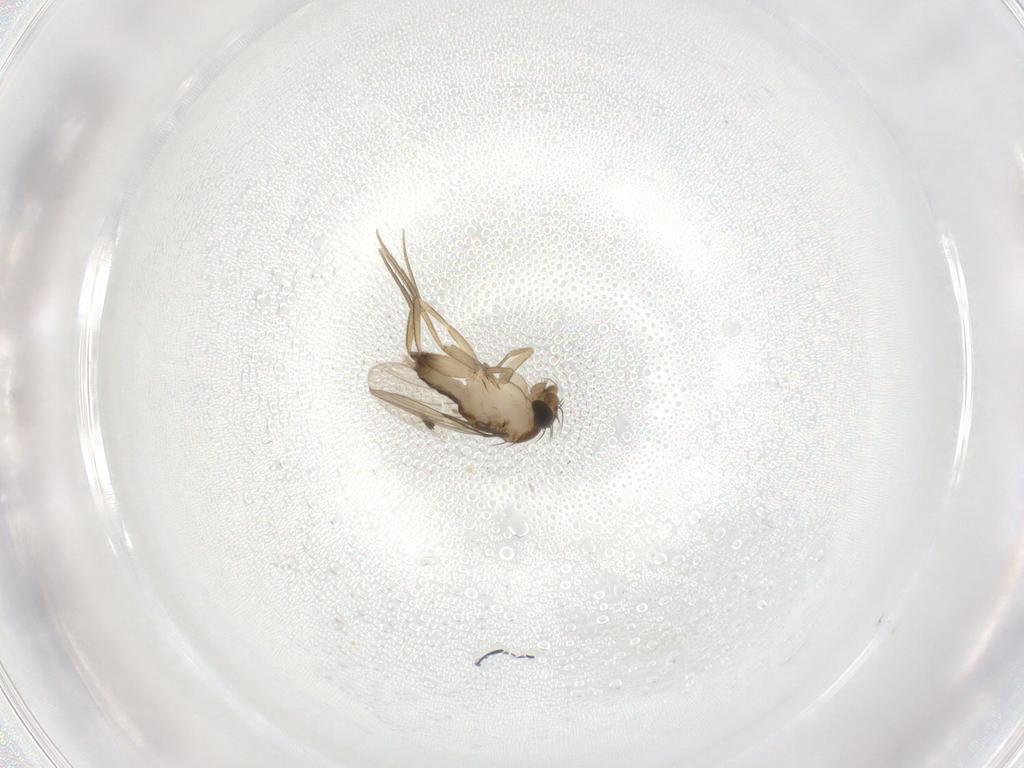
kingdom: Animalia
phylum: Arthropoda
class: Insecta
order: Diptera
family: Phoridae
